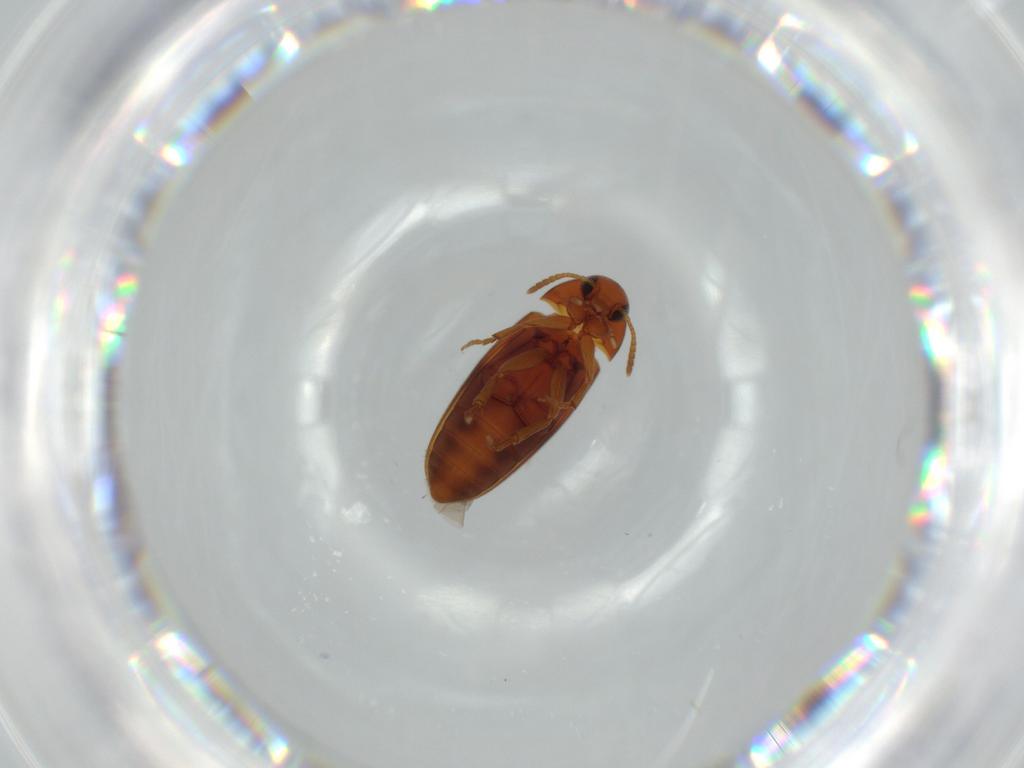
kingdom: Animalia
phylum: Arthropoda
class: Insecta
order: Coleoptera
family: Scraptiidae
